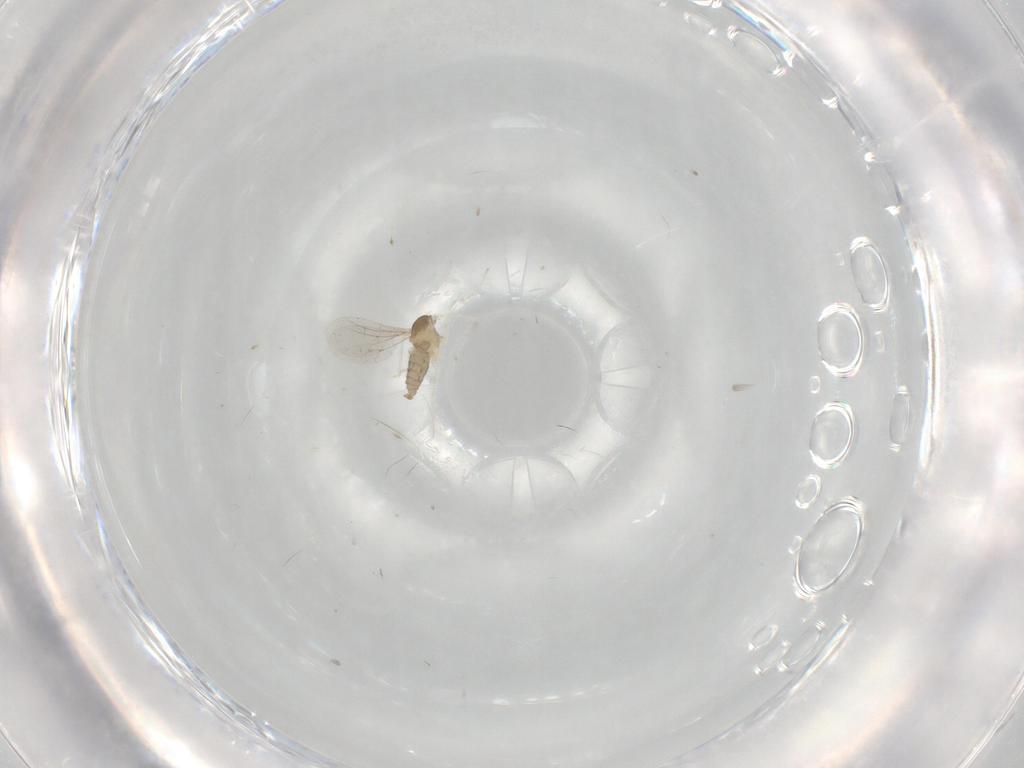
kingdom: Animalia
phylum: Arthropoda
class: Insecta
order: Diptera
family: Cecidomyiidae
